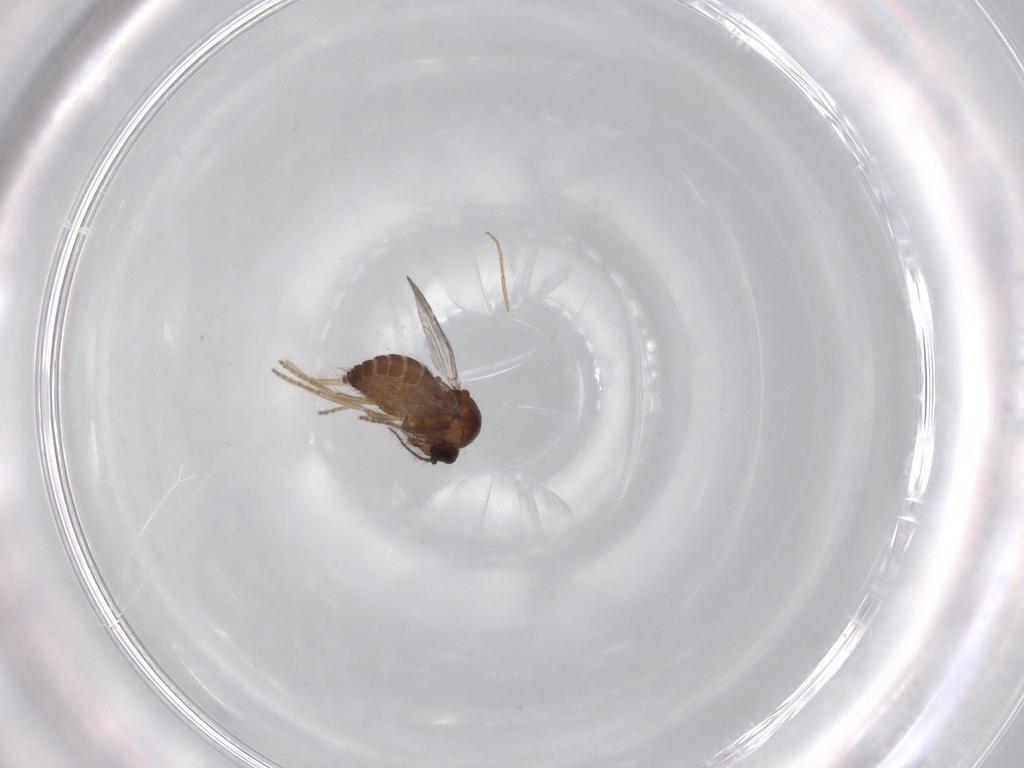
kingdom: Animalia
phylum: Arthropoda
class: Insecta
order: Diptera
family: Ceratopogonidae
